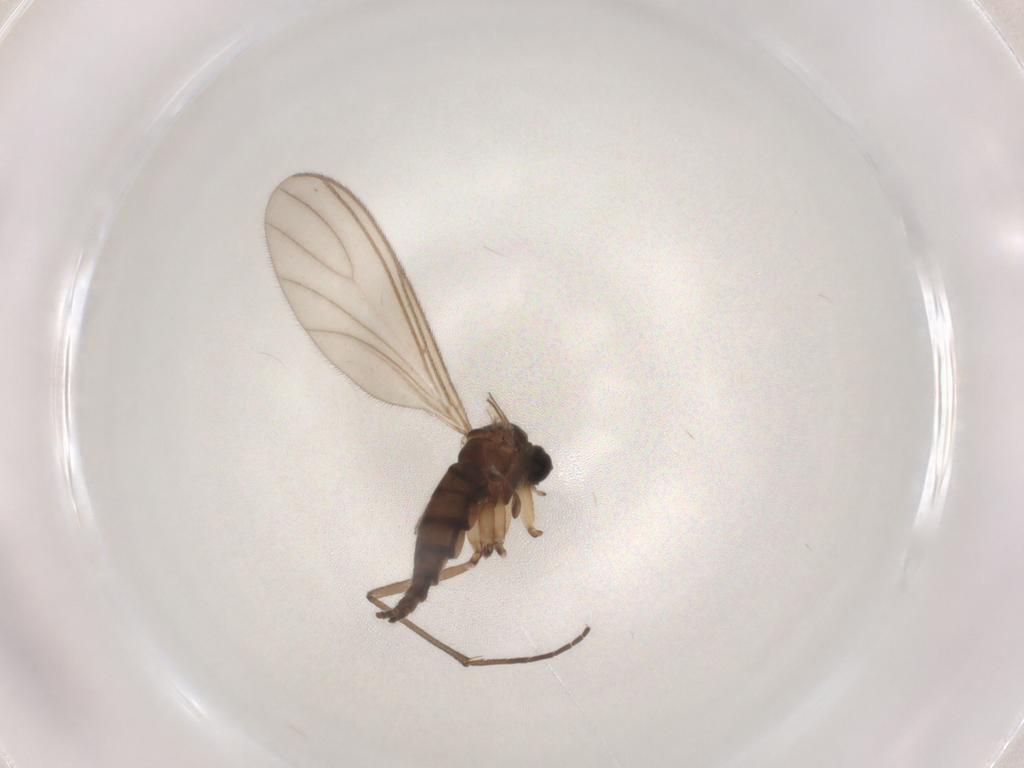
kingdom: Animalia
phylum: Arthropoda
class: Insecta
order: Diptera
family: Sciaridae
